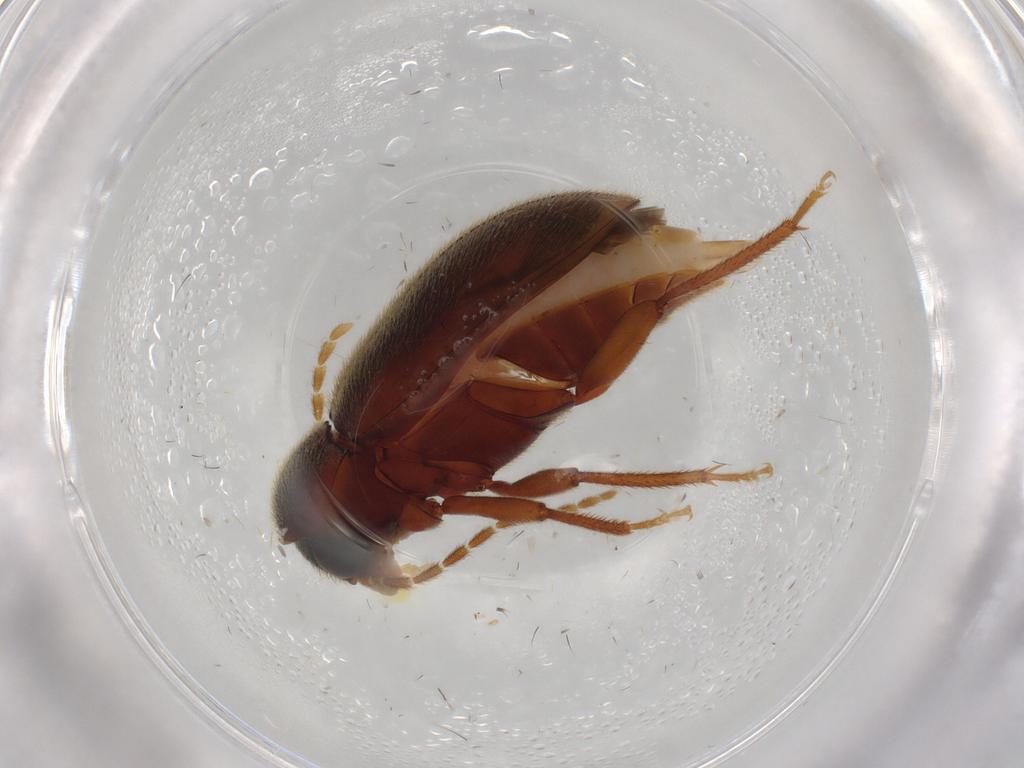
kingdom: Animalia
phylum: Arthropoda
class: Insecta
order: Coleoptera
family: Ptilodactylidae
